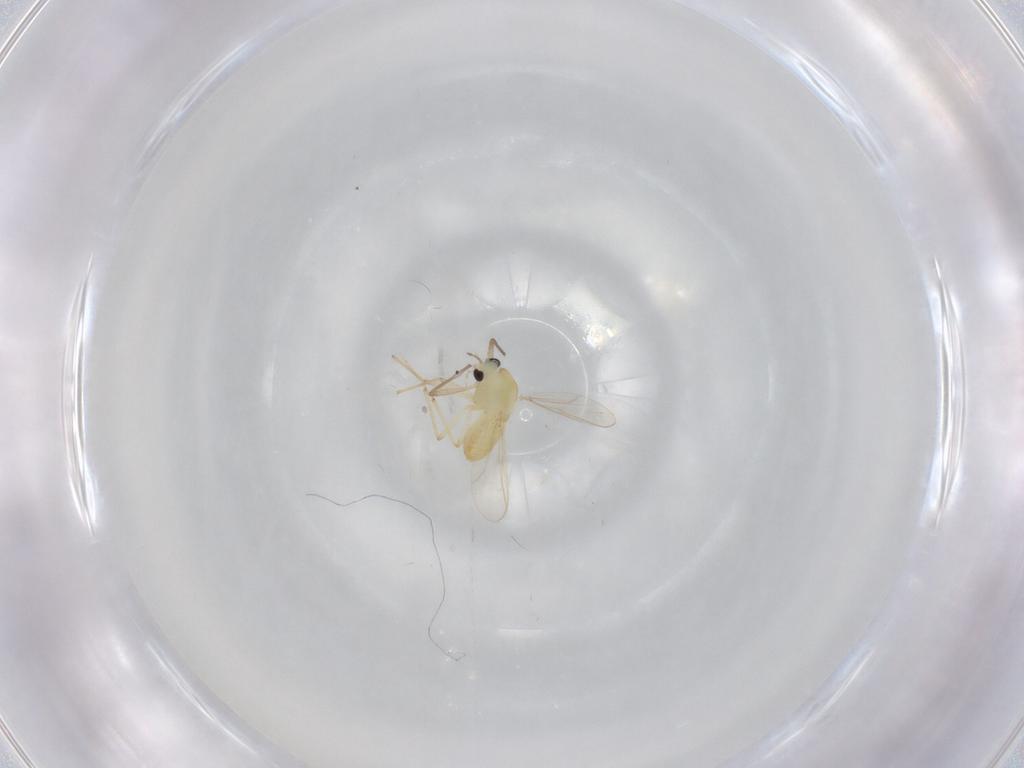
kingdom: Animalia
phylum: Arthropoda
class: Insecta
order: Diptera
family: Chironomidae
